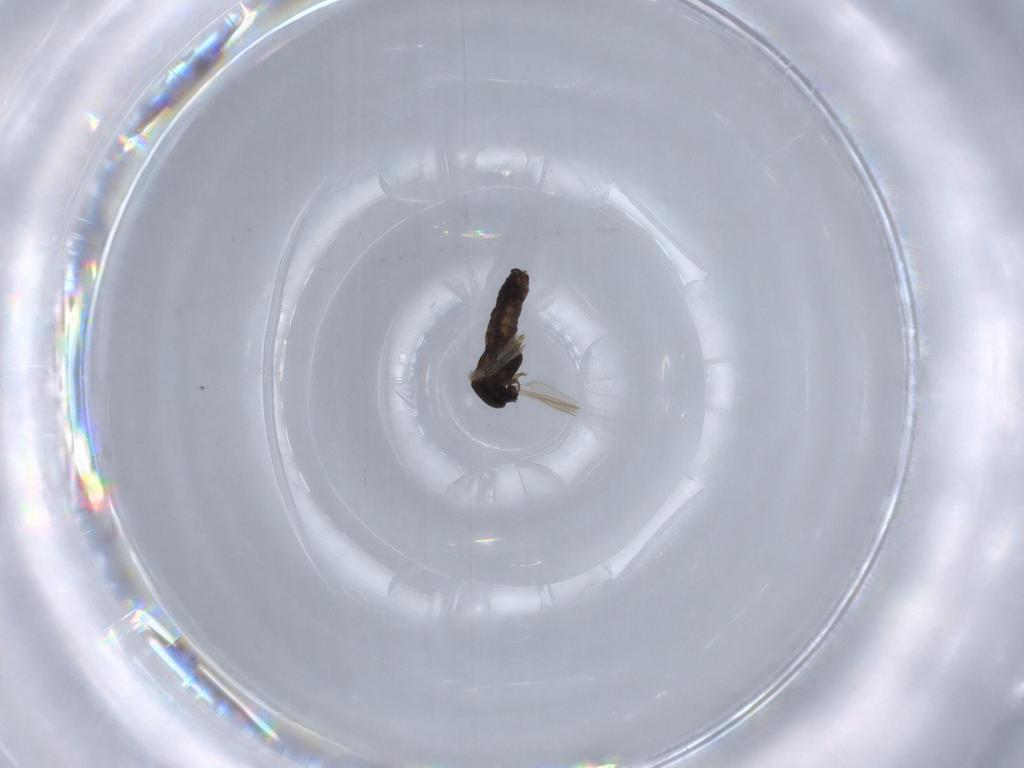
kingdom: Animalia
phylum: Arthropoda
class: Insecta
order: Diptera
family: Chironomidae
